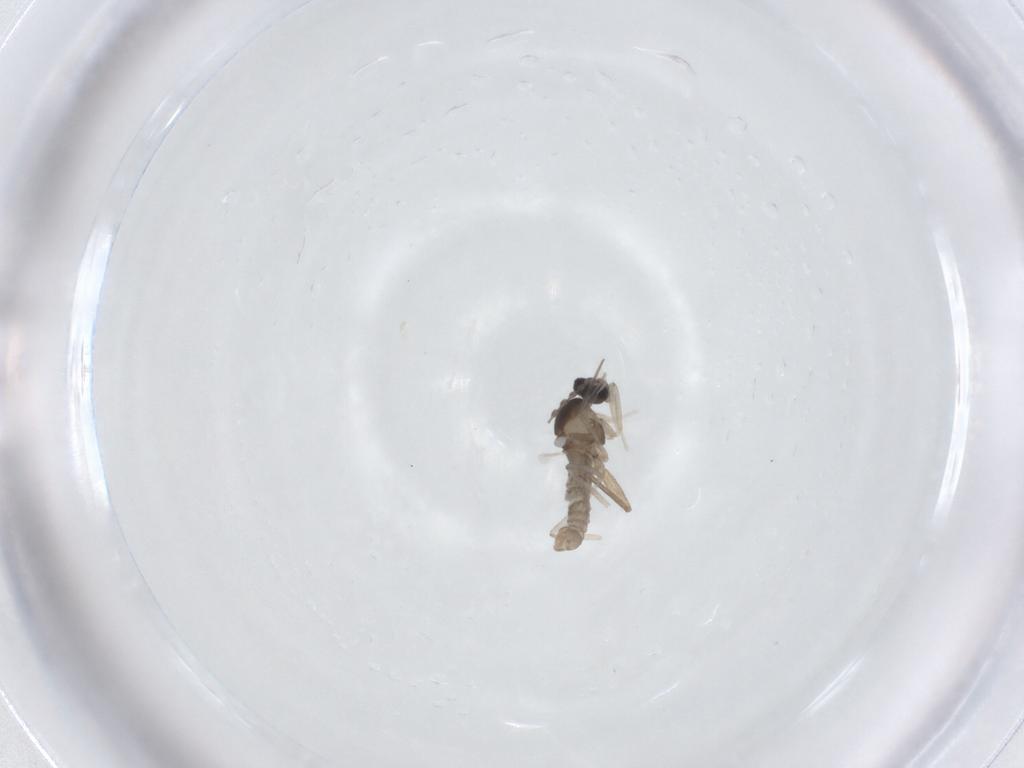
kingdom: Animalia
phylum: Arthropoda
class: Insecta
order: Diptera
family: Cecidomyiidae
